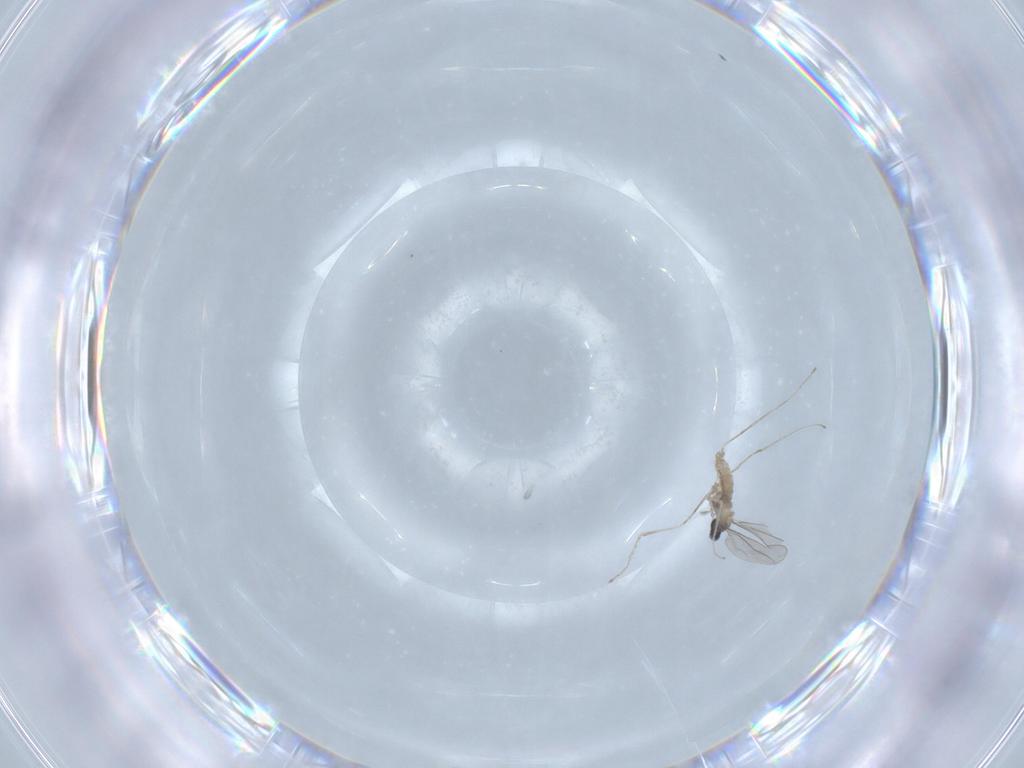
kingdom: Animalia
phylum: Arthropoda
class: Insecta
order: Diptera
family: Cecidomyiidae
